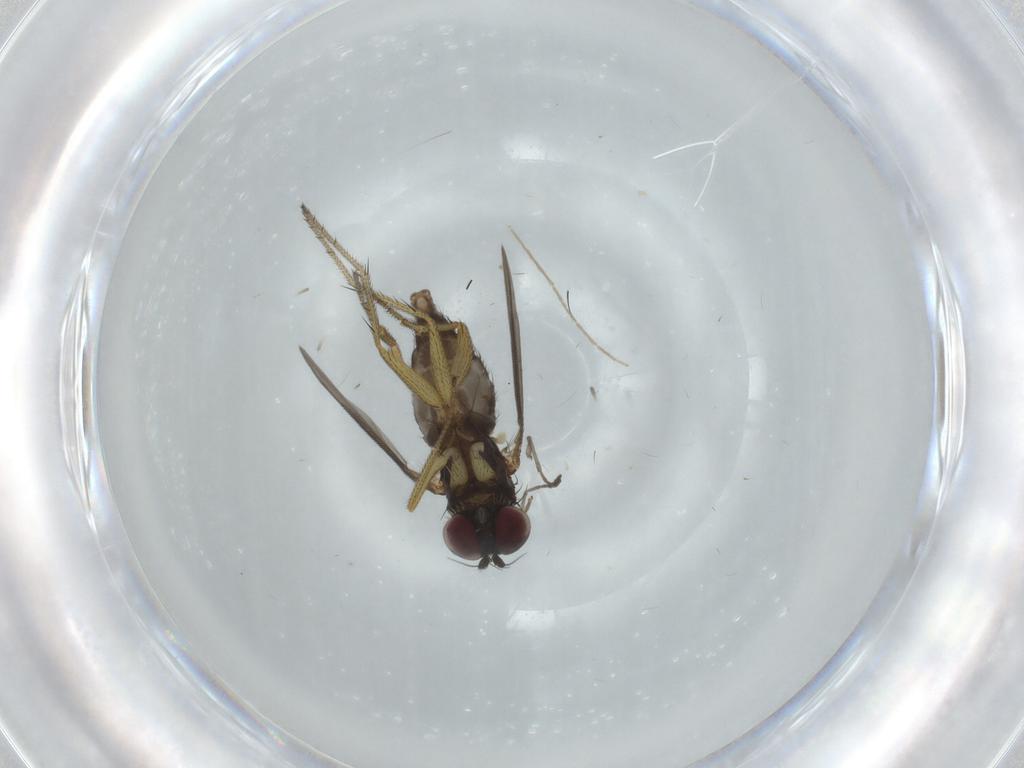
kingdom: Animalia
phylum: Arthropoda
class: Insecta
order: Diptera
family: Sciaridae
